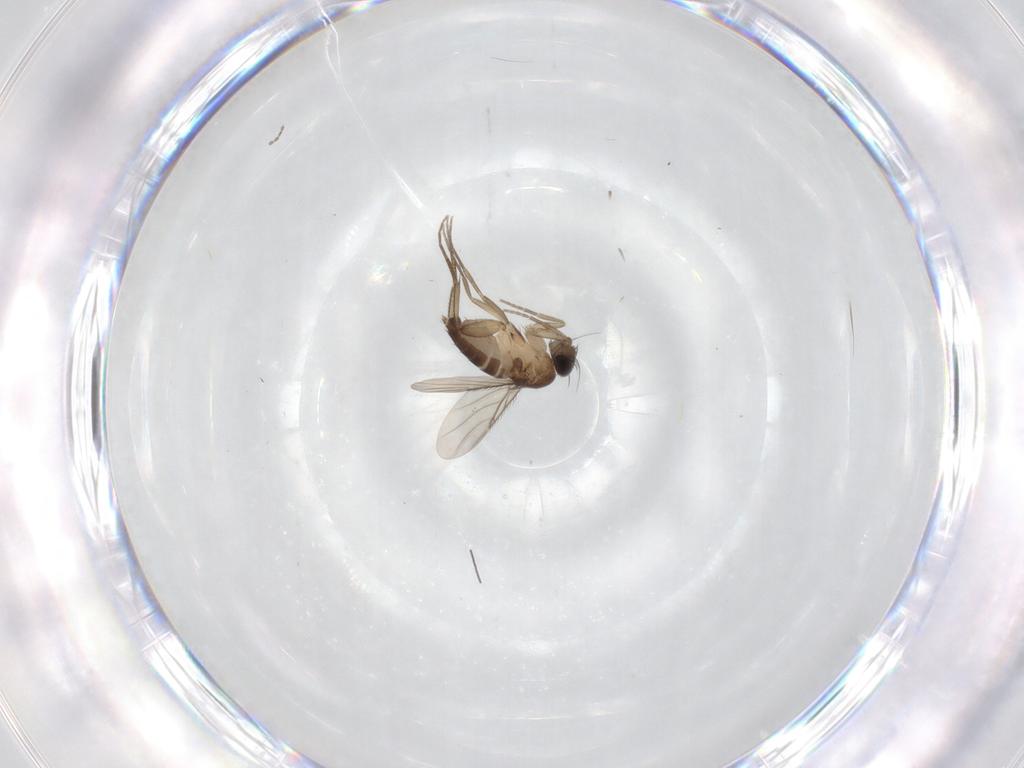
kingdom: Animalia
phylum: Arthropoda
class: Insecta
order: Diptera
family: Phoridae
